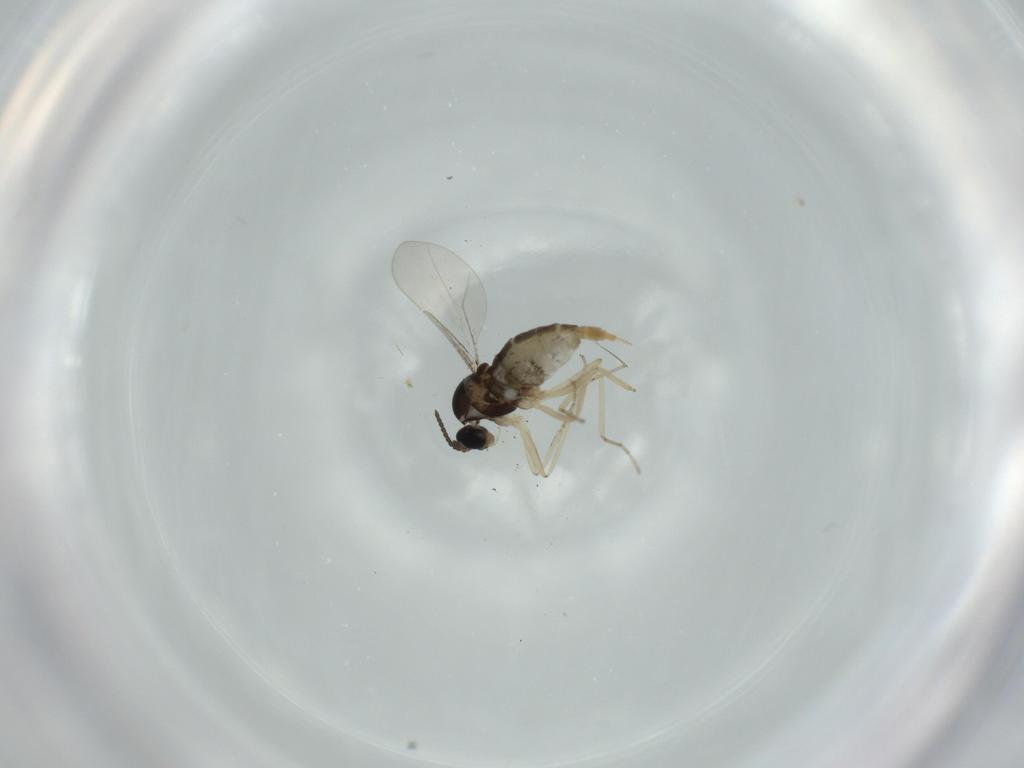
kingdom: Animalia
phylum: Arthropoda
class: Insecta
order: Diptera
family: Cecidomyiidae
